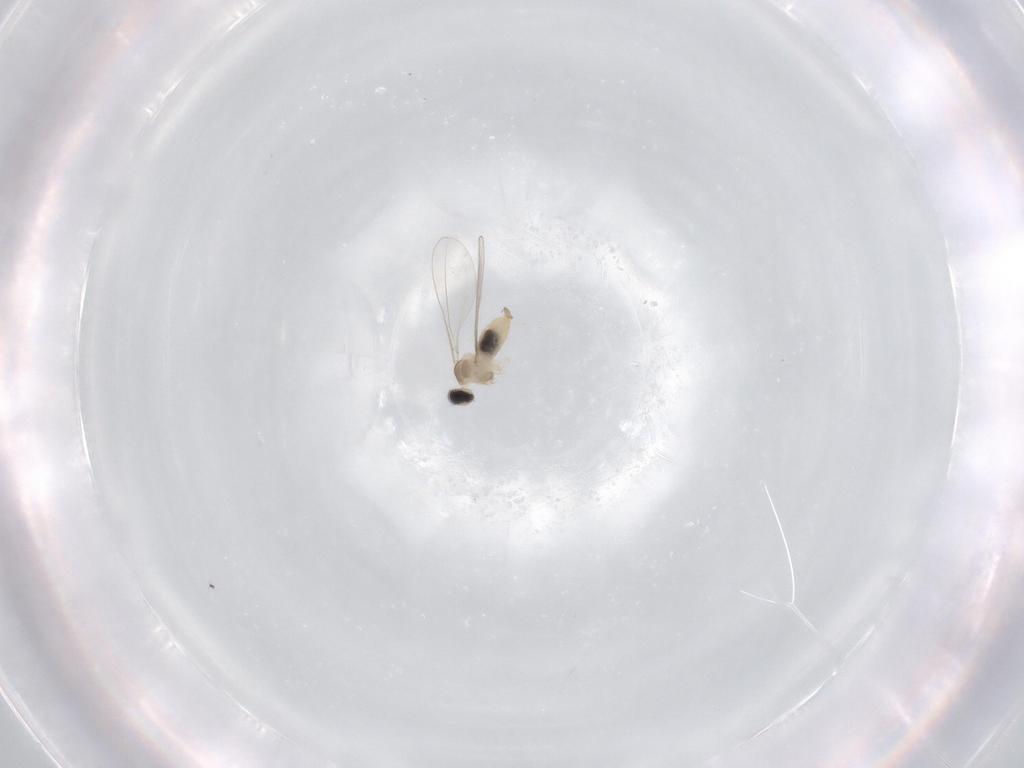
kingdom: Animalia
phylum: Arthropoda
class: Insecta
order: Diptera
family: Cecidomyiidae
